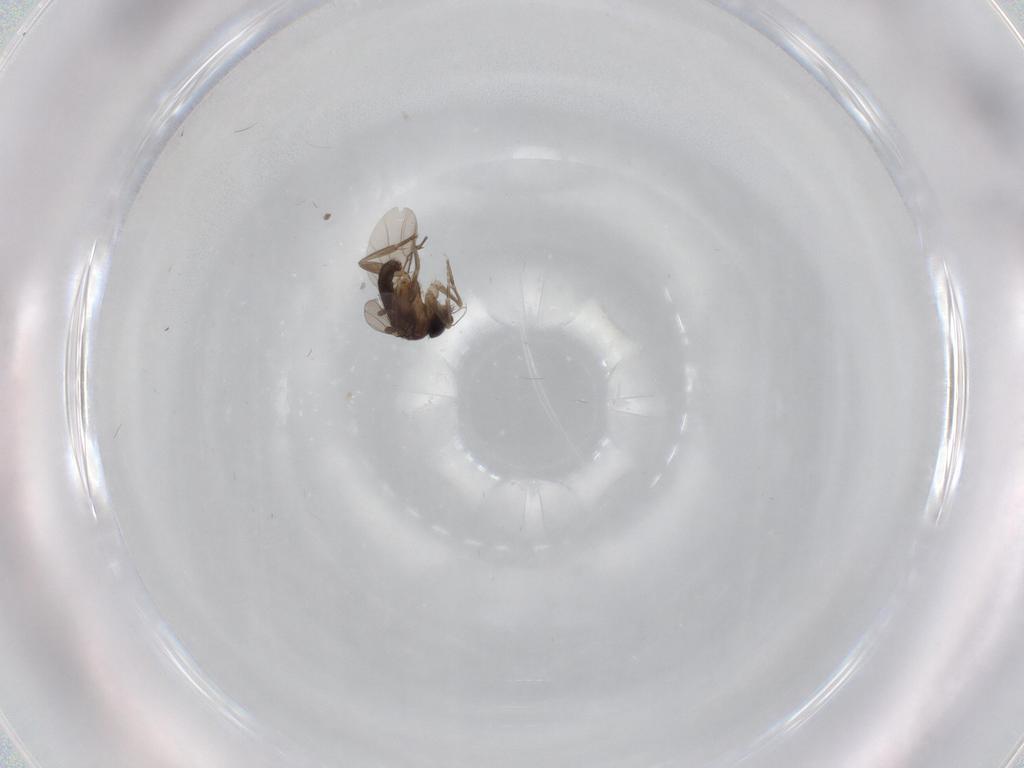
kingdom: Animalia
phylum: Arthropoda
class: Insecta
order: Diptera
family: Phoridae
